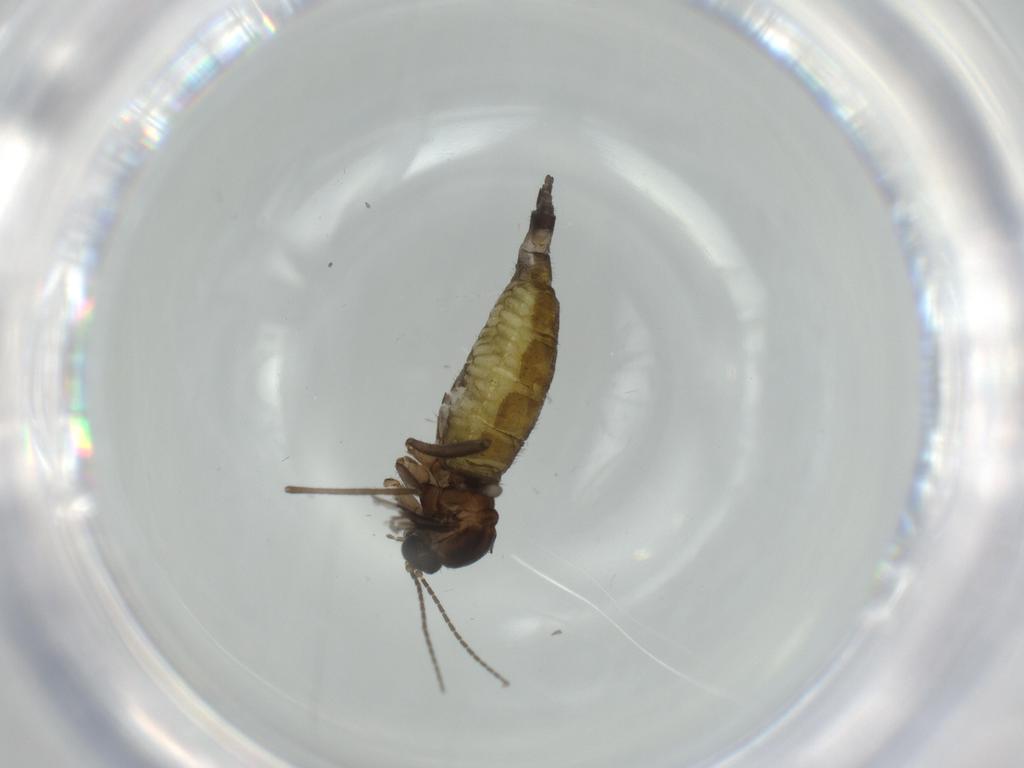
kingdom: Animalia
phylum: Arthropoda
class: Insecta
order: Diptera
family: Sciaridae
